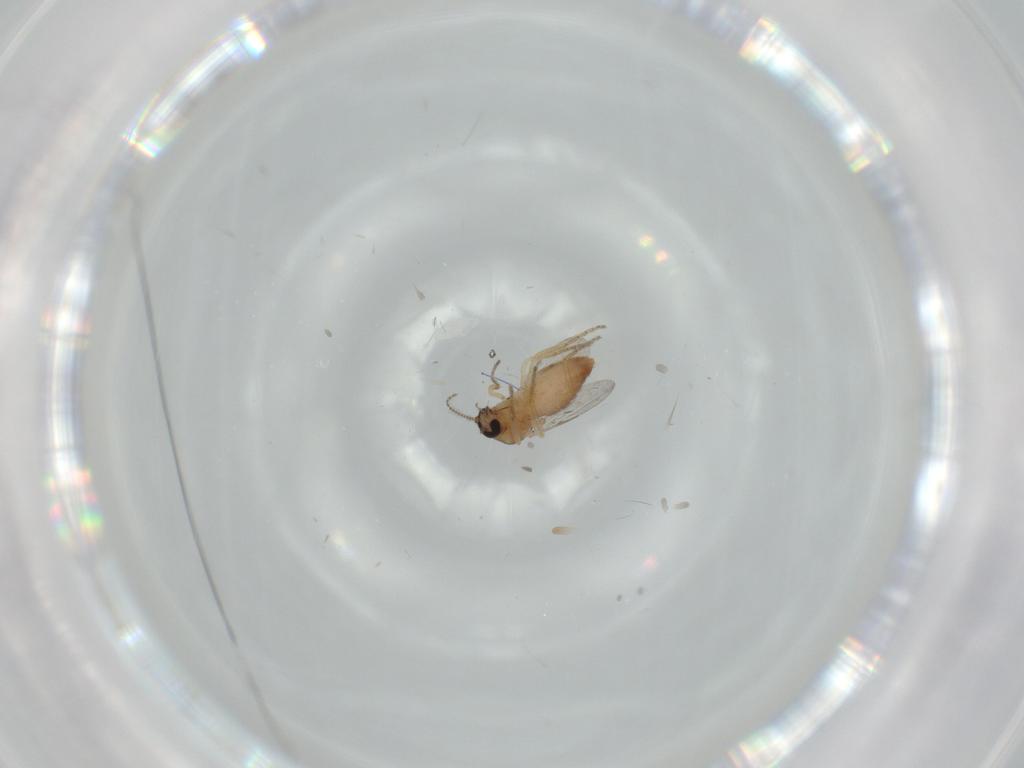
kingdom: Animalia
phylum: Arthropoda
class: Insecta
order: Diptera
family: Ceratopogonidae
